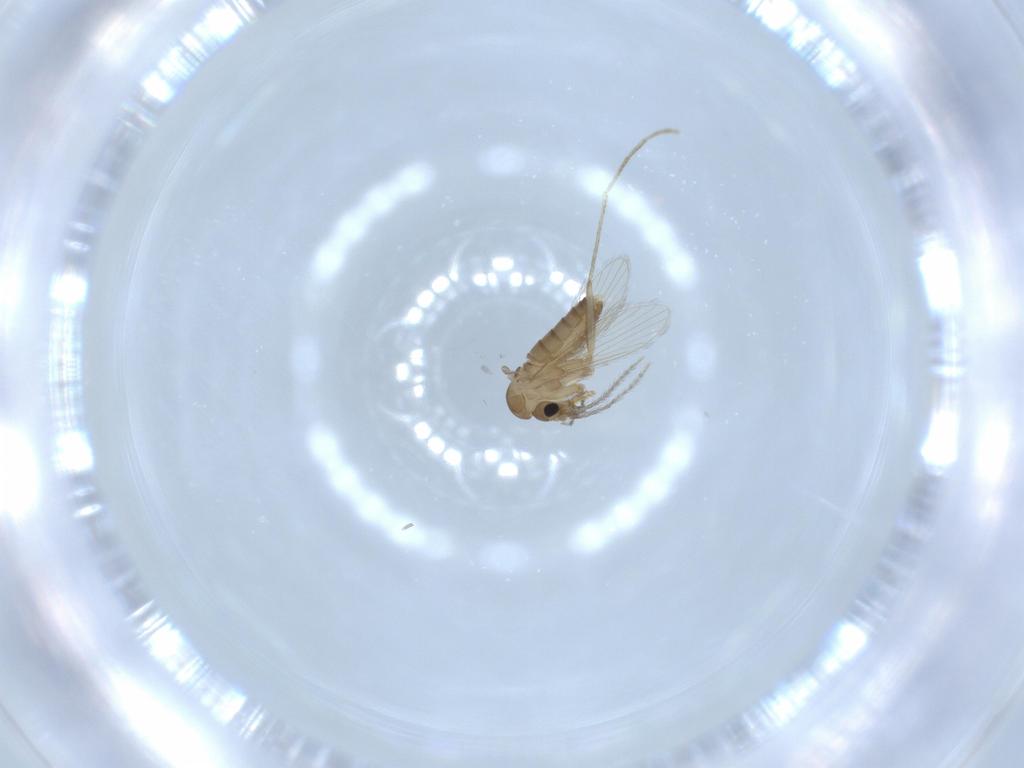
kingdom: Animalia
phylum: Arthropoda
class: Insecta
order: Diptera
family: Psychodidae
